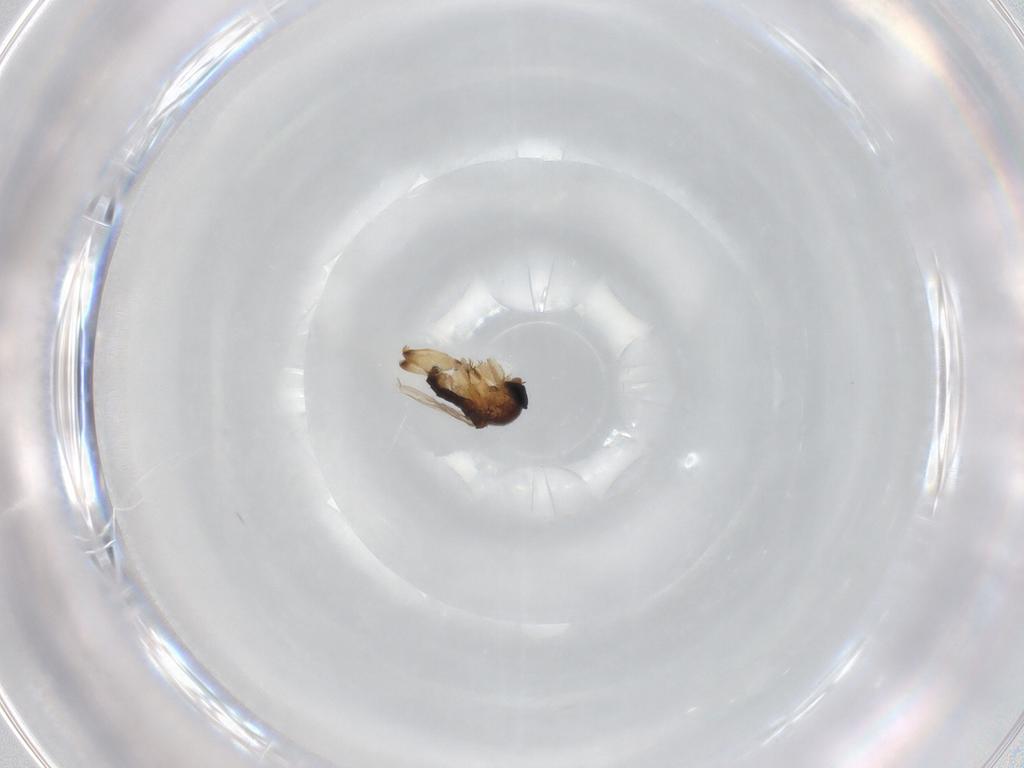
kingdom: Animalia
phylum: Arthropoda
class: Insecta
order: Diptera
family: Glossinidae
